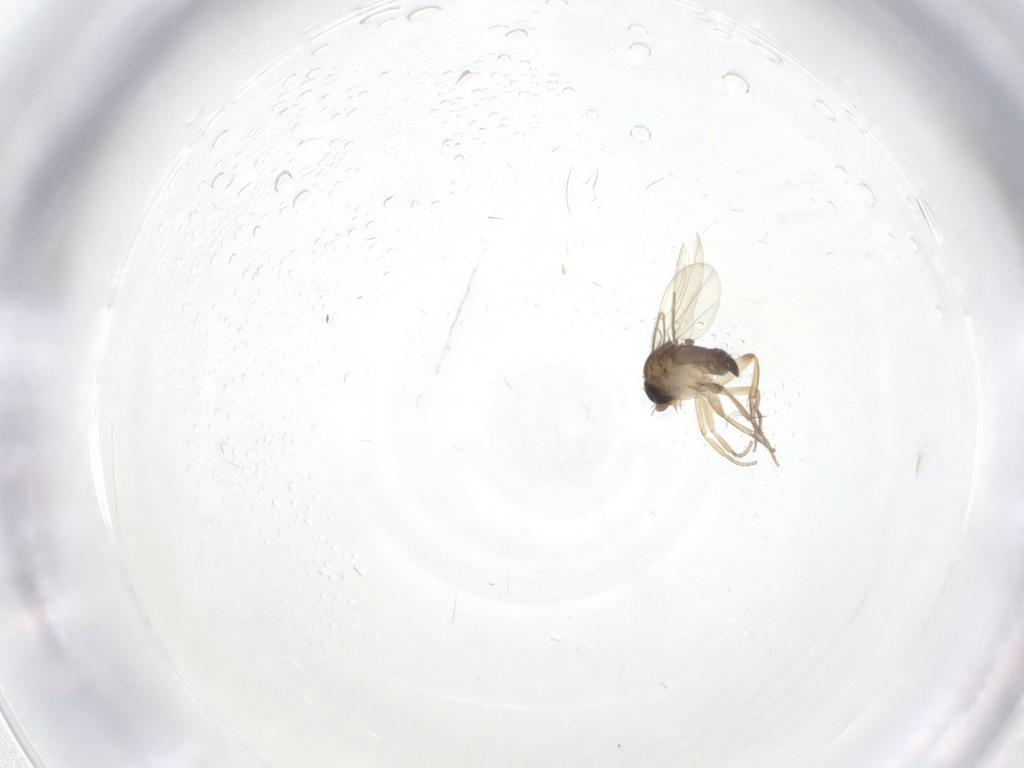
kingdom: Animalia
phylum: Arthropoda
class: Insecta
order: Diptera
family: Phoridae
